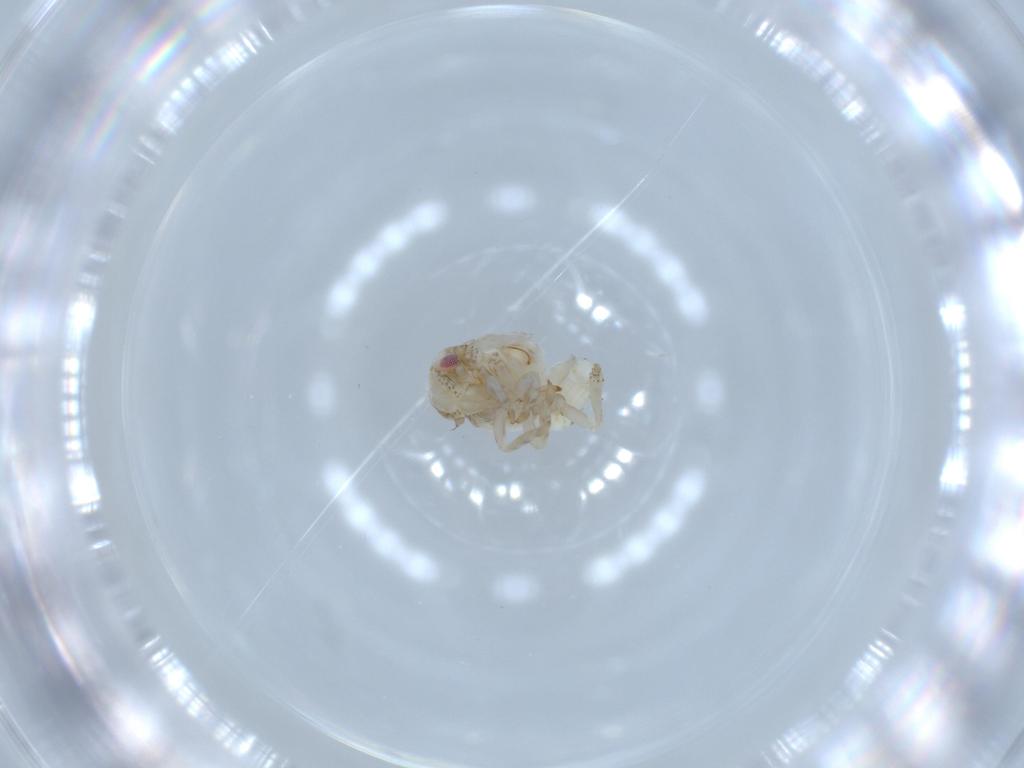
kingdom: Animalia
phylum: Arthropoda
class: Insecta
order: Hemiptera
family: Acanaloniidae
